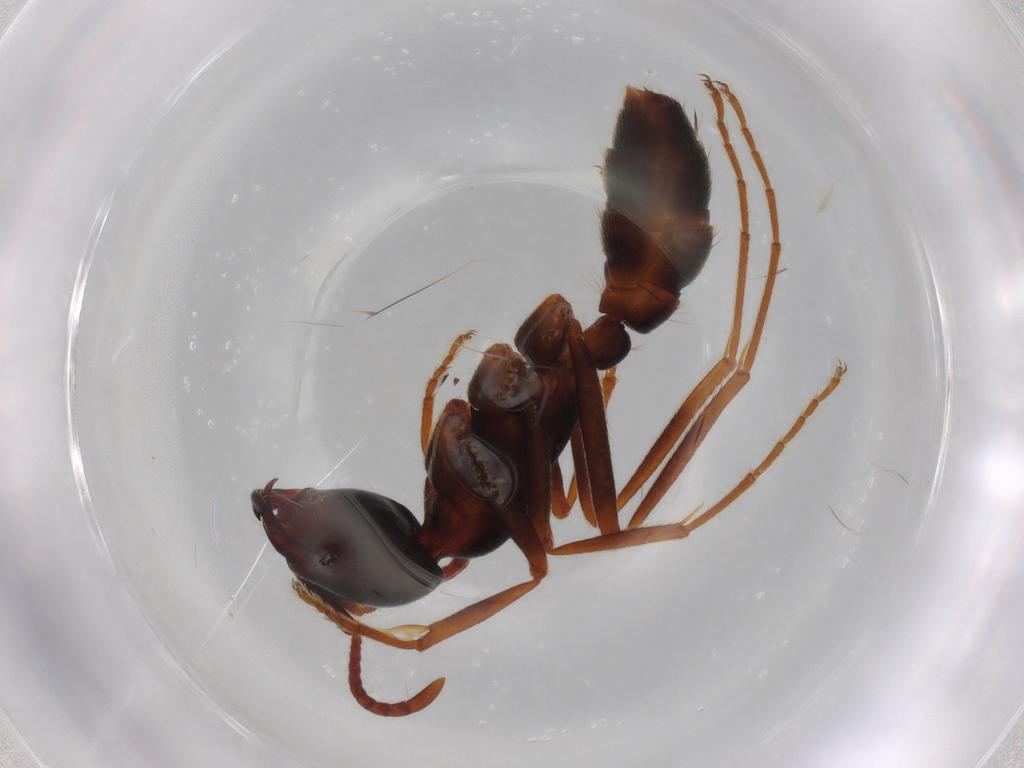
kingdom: Animalia
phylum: Arthropoda
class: Insecta
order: Hymenoptera
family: Formicidae
